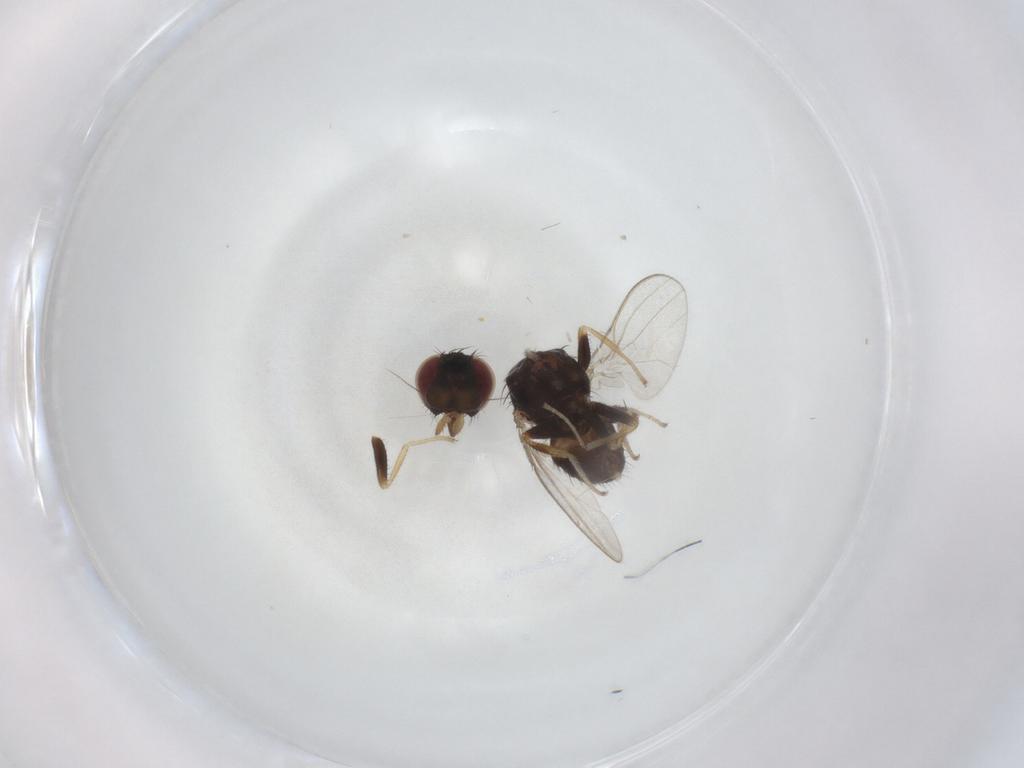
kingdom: Animalia
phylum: Arthropoda
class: Insecta
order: Diptera
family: Milichiidae
